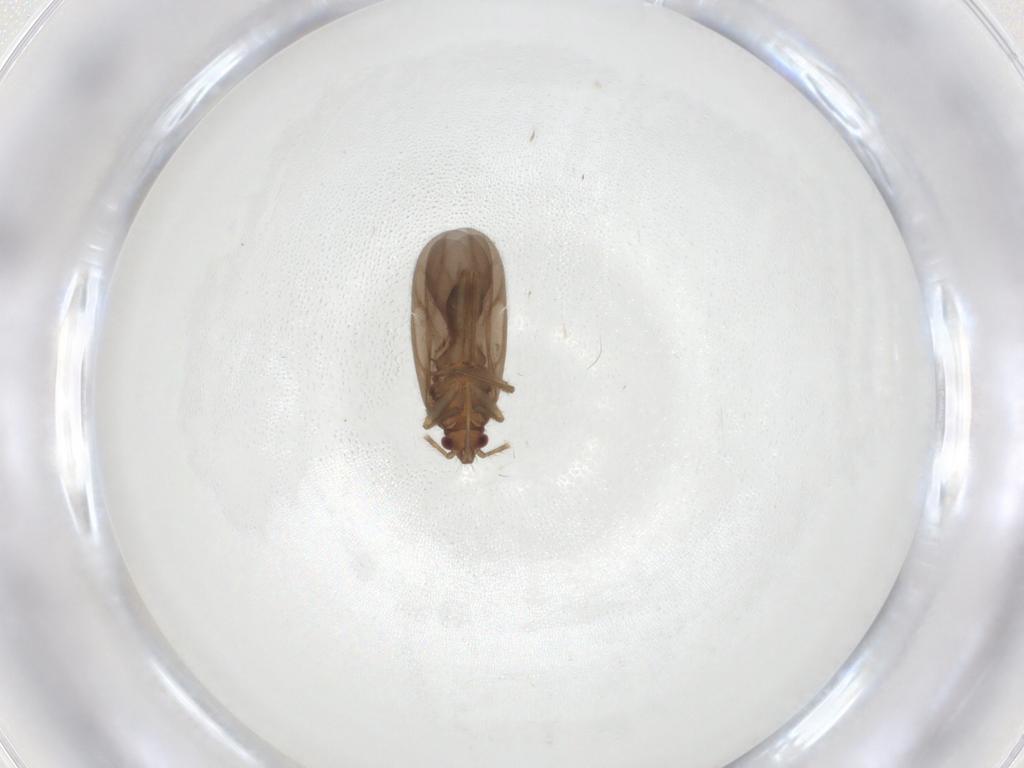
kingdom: Animalia
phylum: Arthropoda
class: Insecta
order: Hemiptera
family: Ceratocombidae
